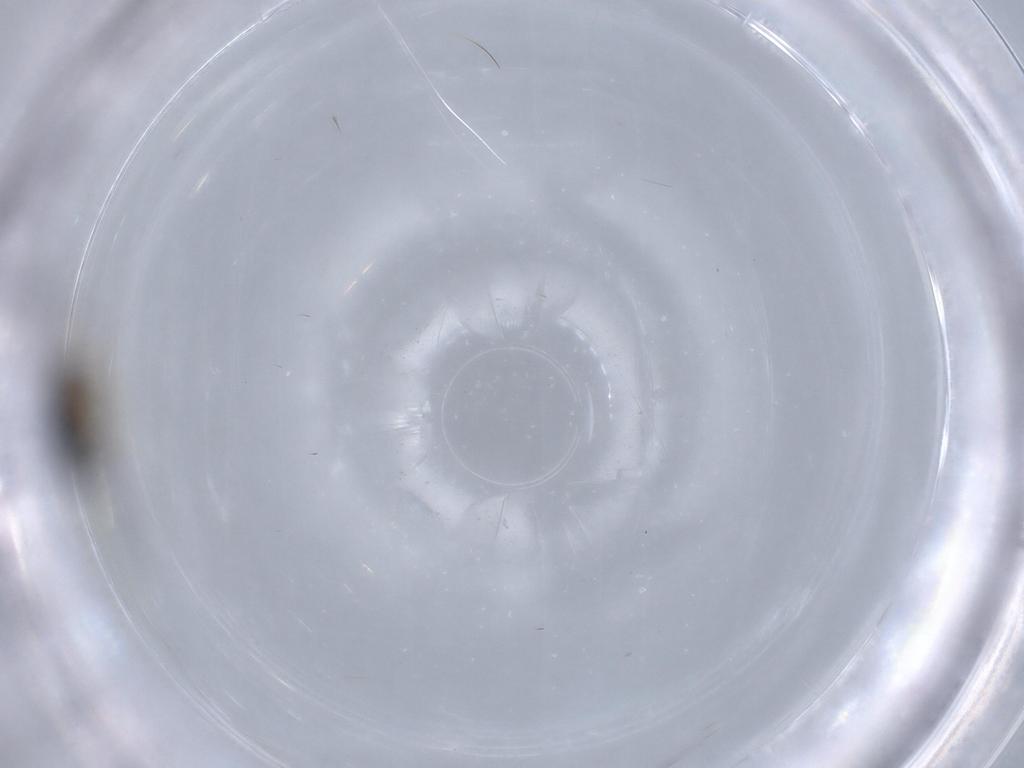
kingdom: Animalia
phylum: Arthropoda
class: Insecta
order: Hymenoptera
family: Figitidae
